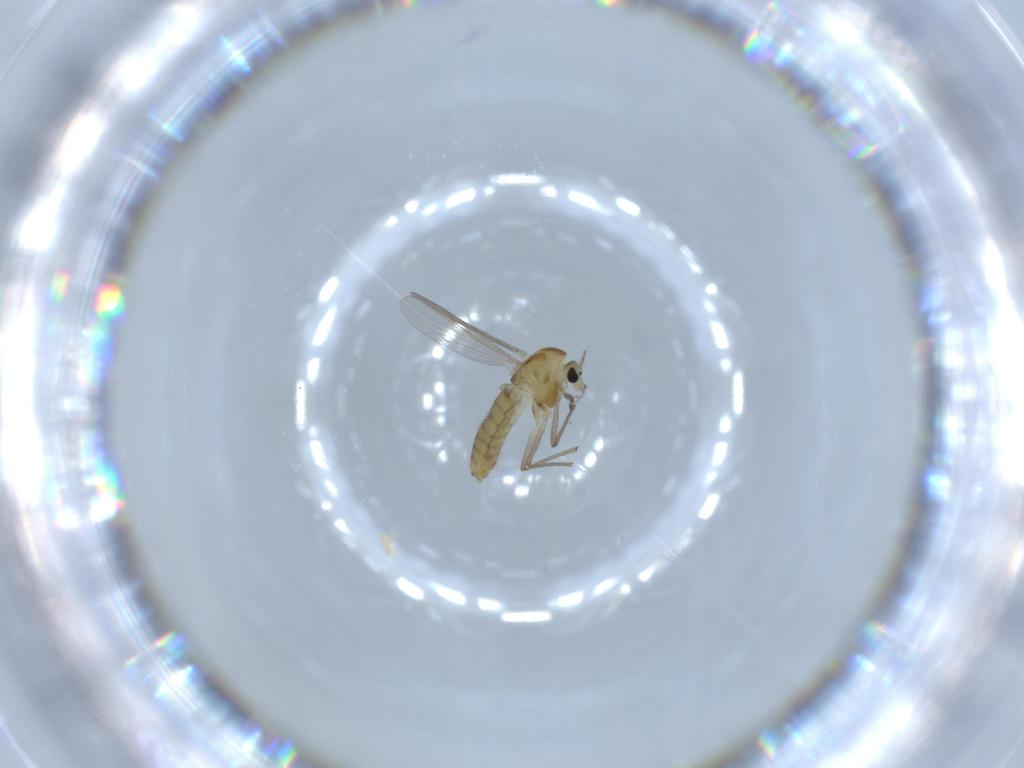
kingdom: Animalia
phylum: Arthropoda
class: Insecta
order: Diptera
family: Chironomidae
